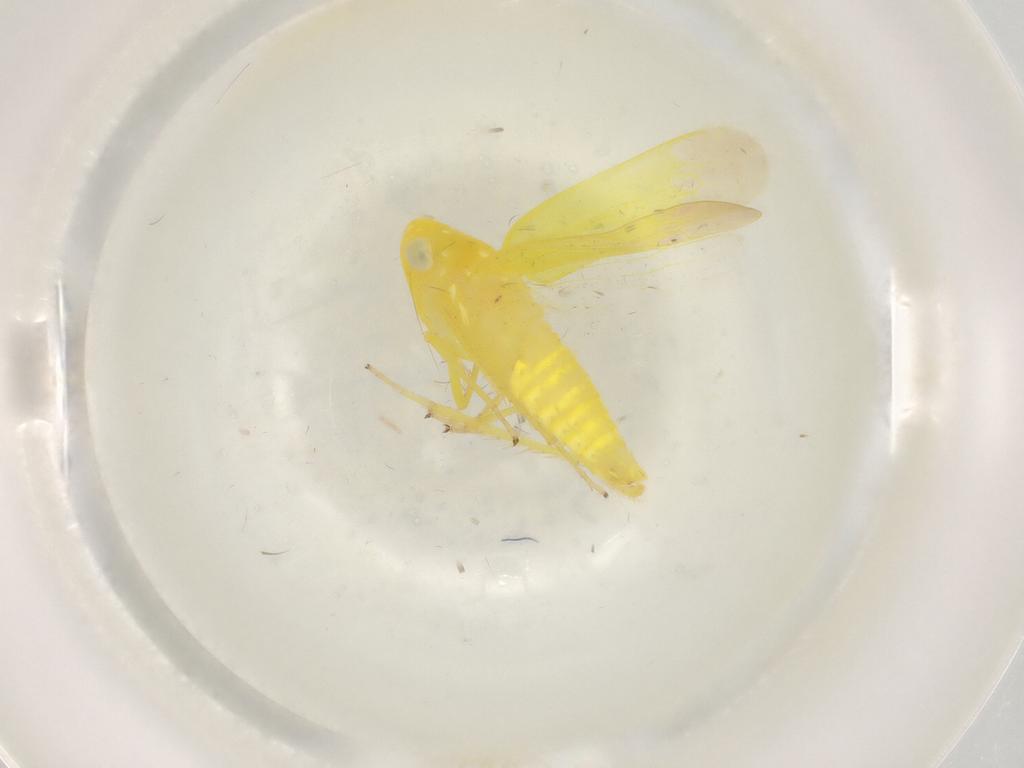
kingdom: Animalia
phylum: Arthropoda
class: Insecta
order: Hemiptera
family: Cicadellidae
